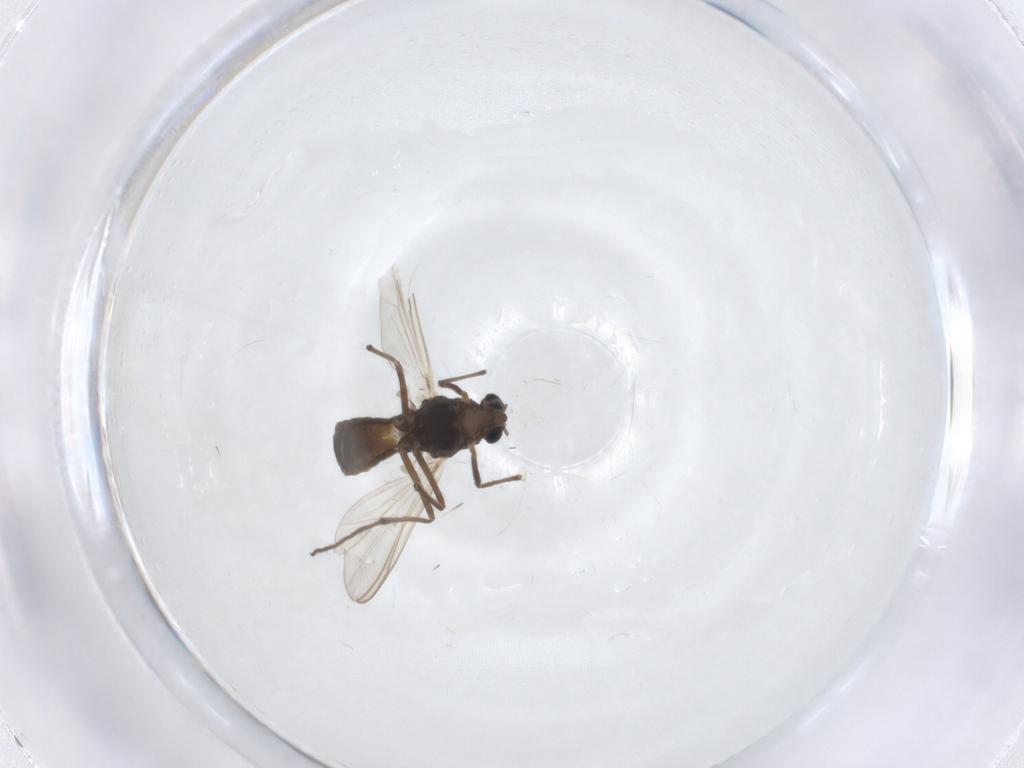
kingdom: Animalia
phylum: Arthropoda
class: Insecta
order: Diptera
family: Chironomidae
